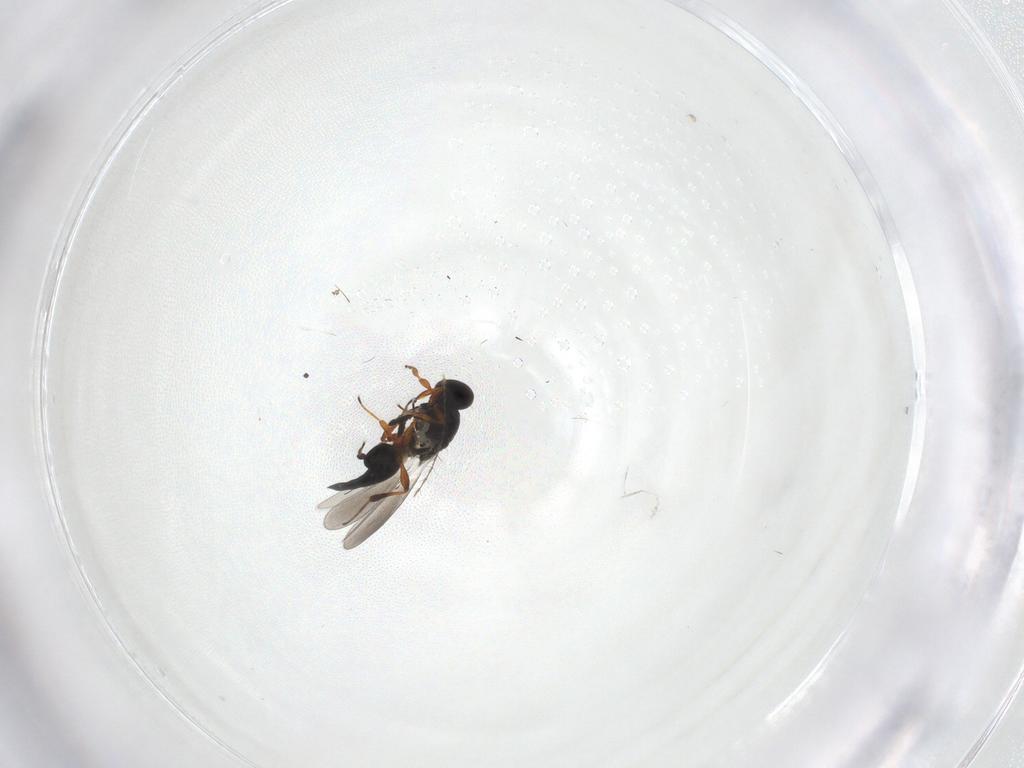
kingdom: Animalia
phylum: Arthropoda
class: Insecta
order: Hymenoptera
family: Platygastridae
